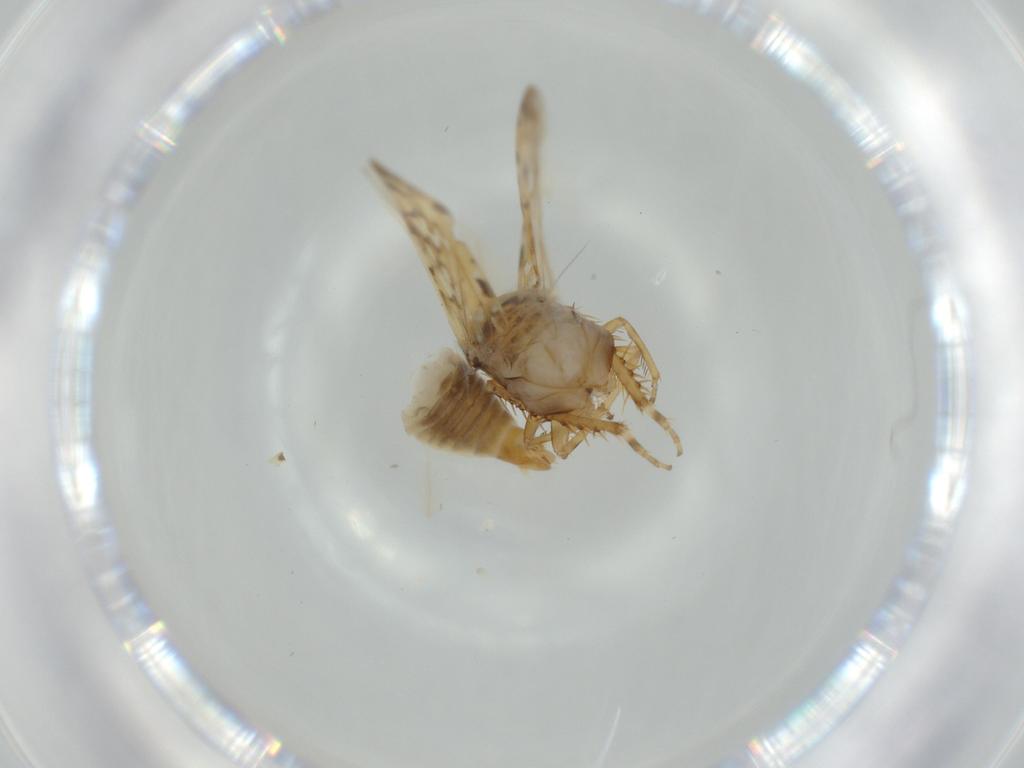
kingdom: Animalia
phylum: Arthropoda
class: Insecta
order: Hemiptera
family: Cicadellidae
